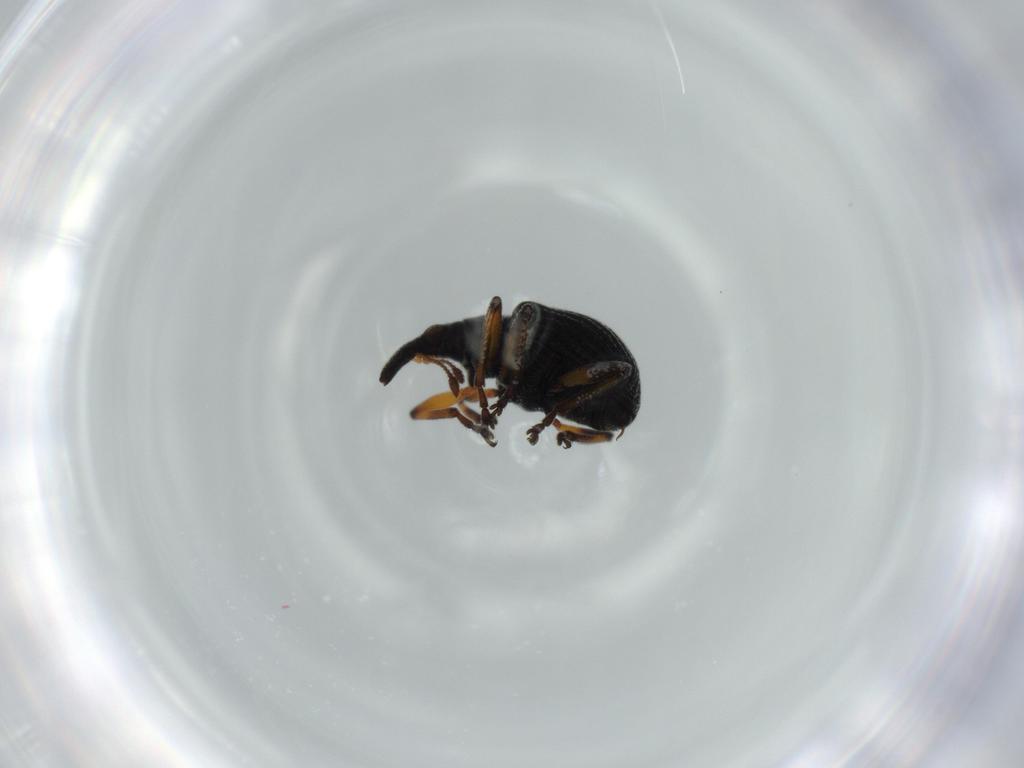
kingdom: Animalia
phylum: Arthropoda
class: Insecta
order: Coleoptera
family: Brentidae
